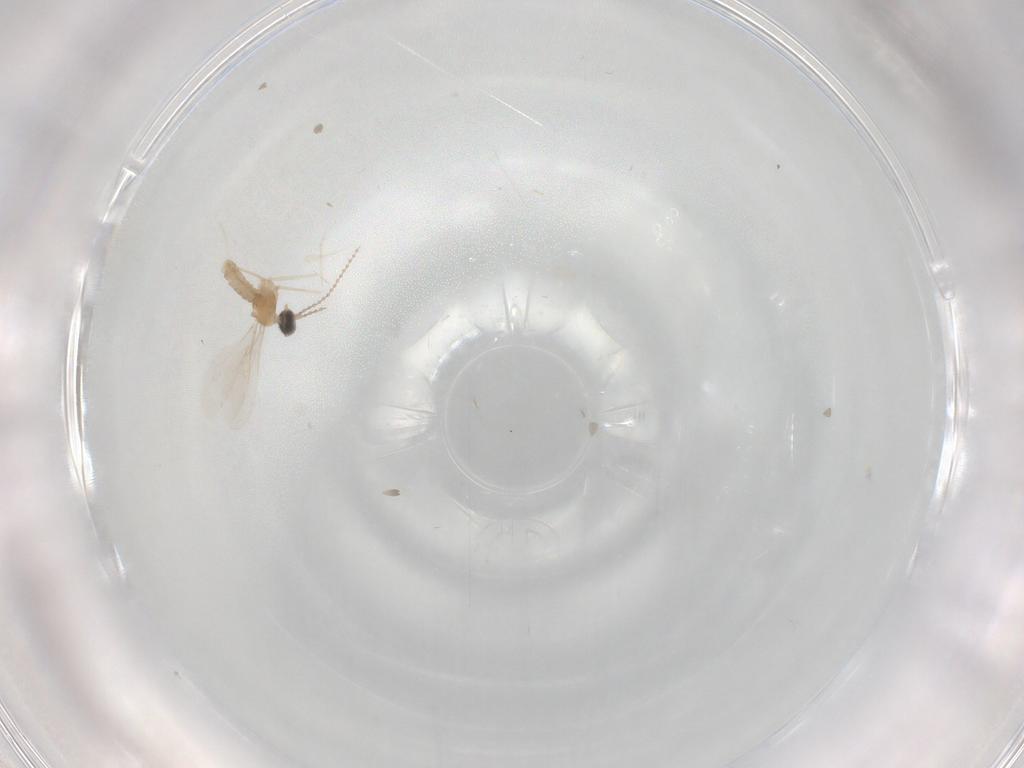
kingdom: Animalia
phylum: Arthropoda
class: Insecta
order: Diptera
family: Cecidomyiidae
